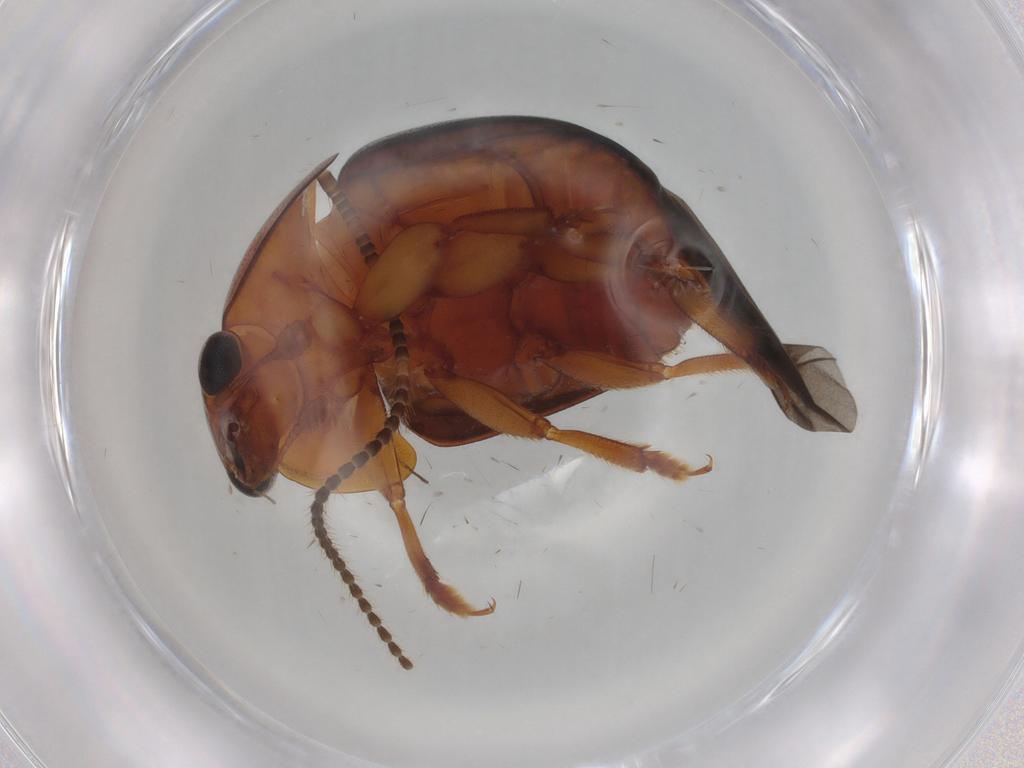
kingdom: Animalia
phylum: Arthropoda
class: Insecta
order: Coleoptera
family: Nitidulidae
